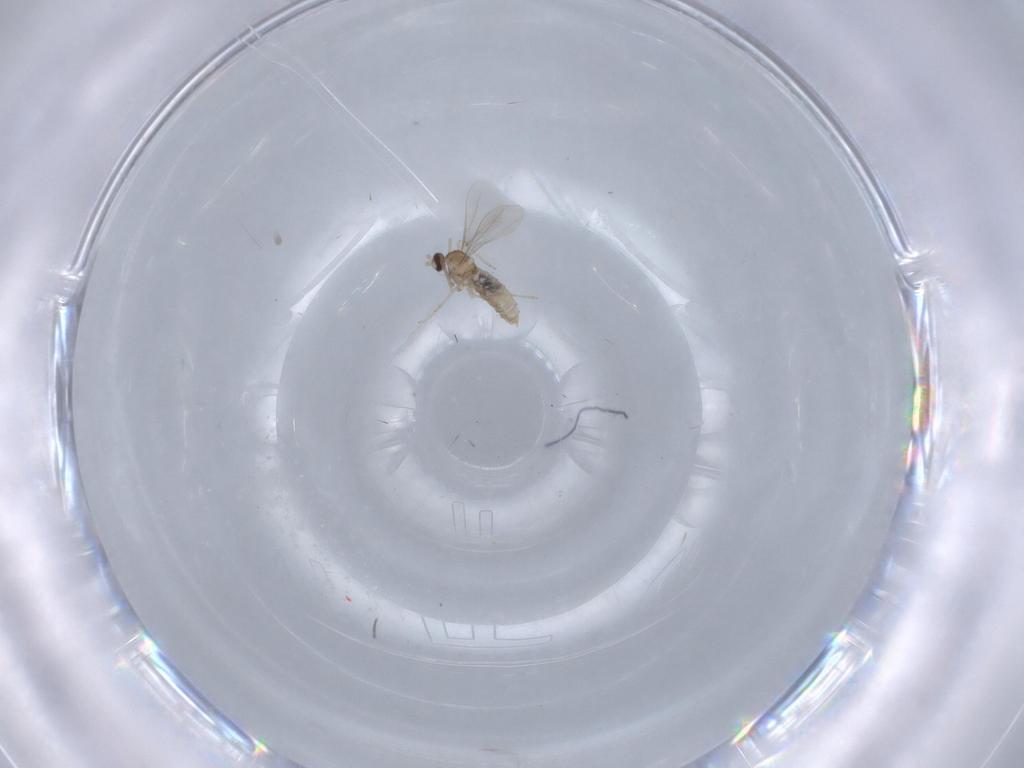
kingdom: Animalia
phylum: Arthropoda
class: Insecta
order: Diptera
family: Cecidomyiidae
